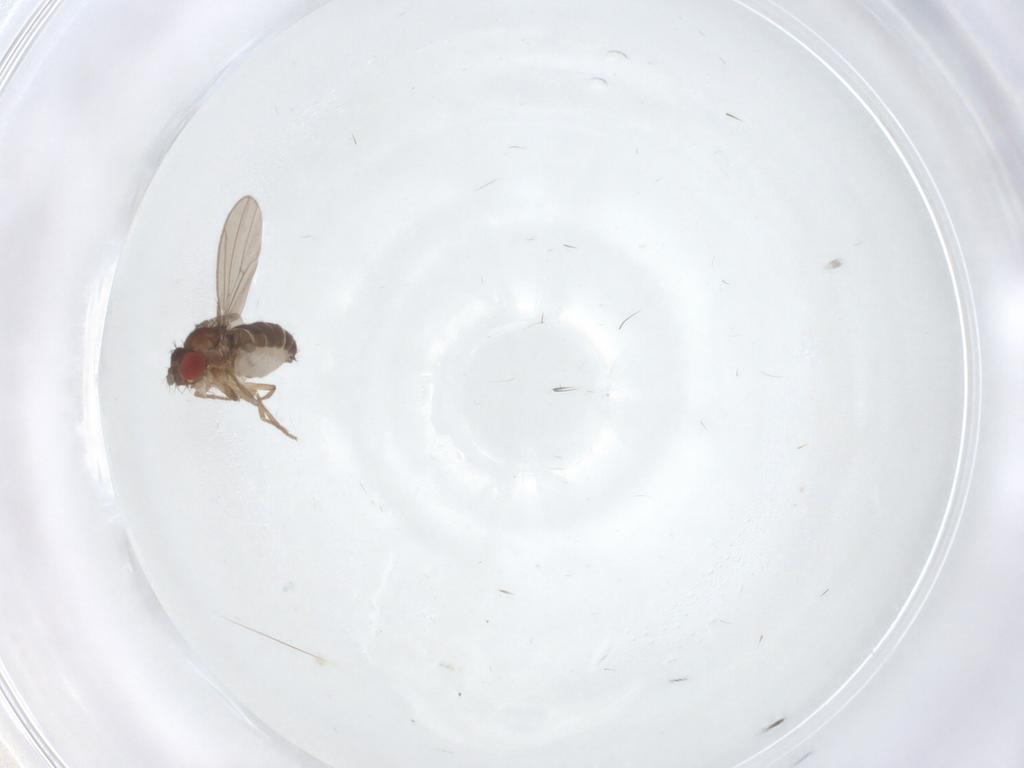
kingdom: Animalia
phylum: Arthropoda
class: Insecta
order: Diptera
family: Drosophilidae
